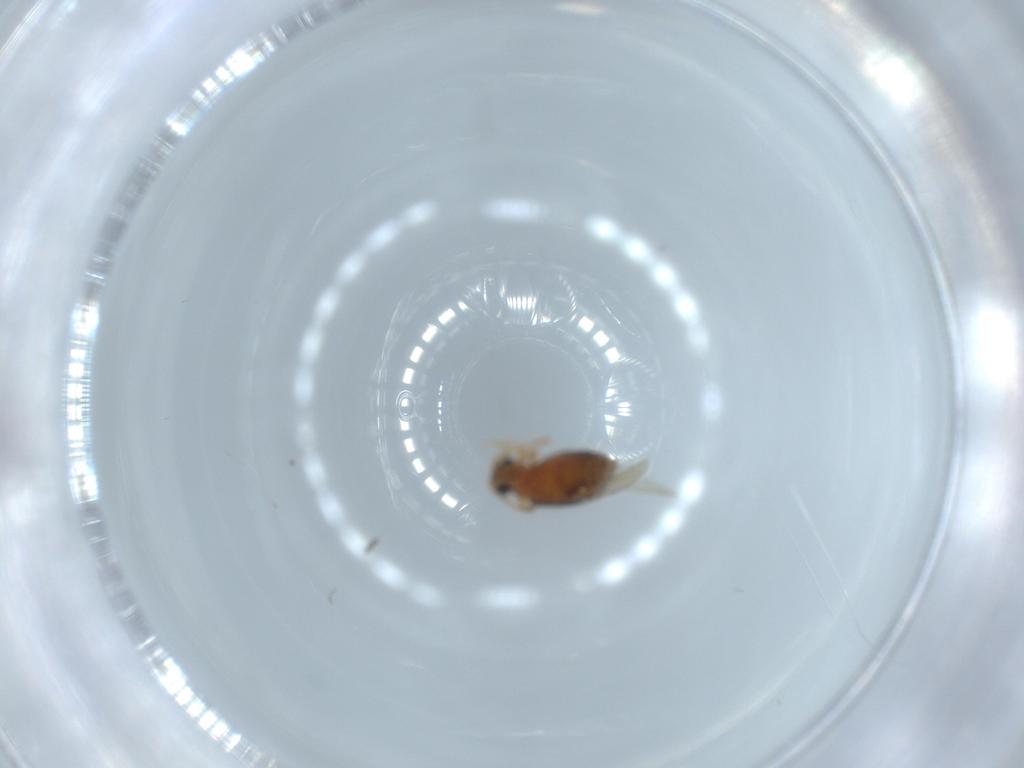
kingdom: Animalia
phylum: Arthropoda
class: Insecta
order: Coleoptera
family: Aderidae
